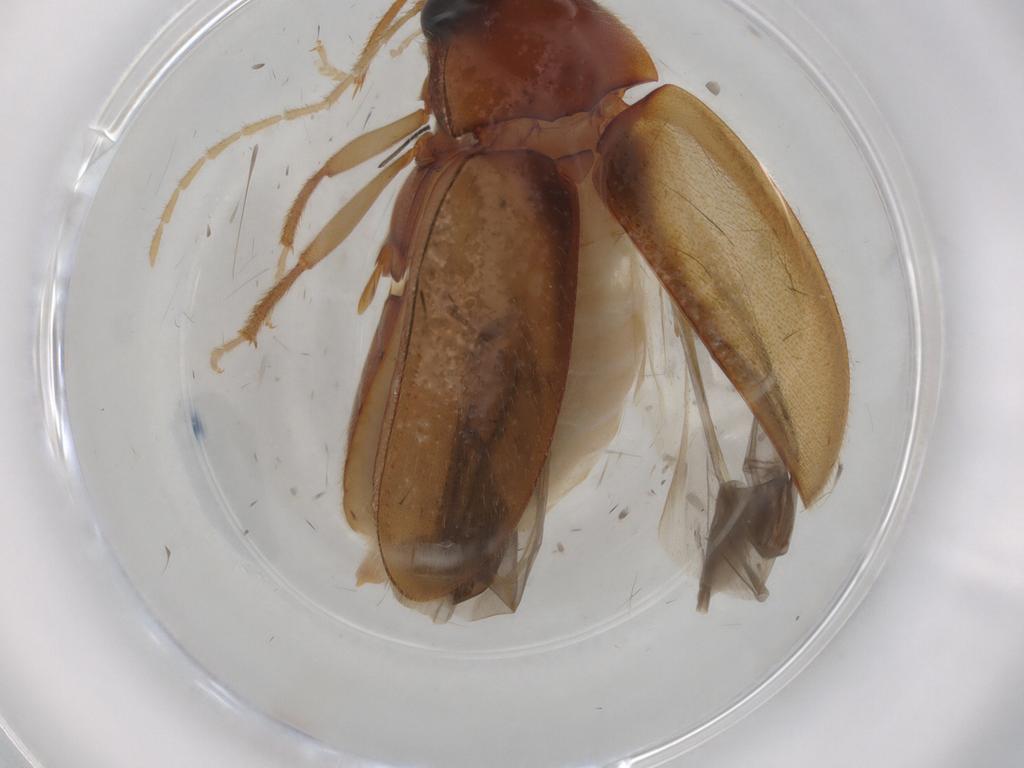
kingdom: Animalia
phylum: Arthropoda
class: Insecta
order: Coleoptera
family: Ptilodactylidae
